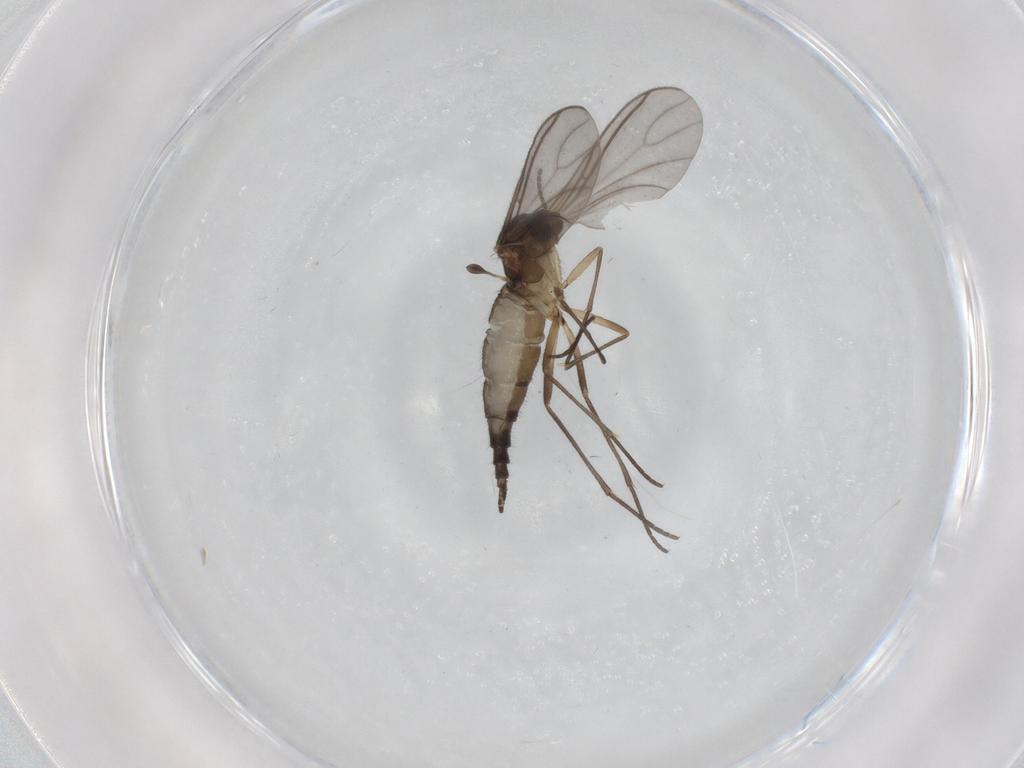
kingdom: Animalia
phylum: Arthropoda
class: Insecta
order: Diptera
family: Sciaridae
